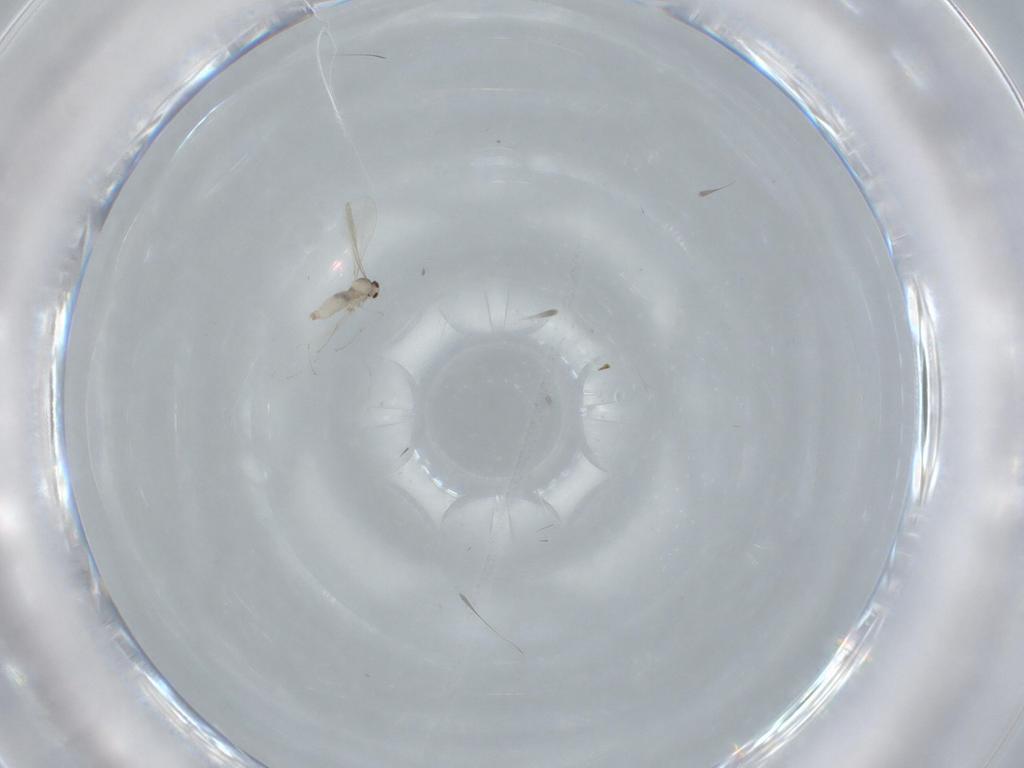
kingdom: Animalia
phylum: Arthropoda
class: Insecta
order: Diptera
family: Cecidomyiidae
